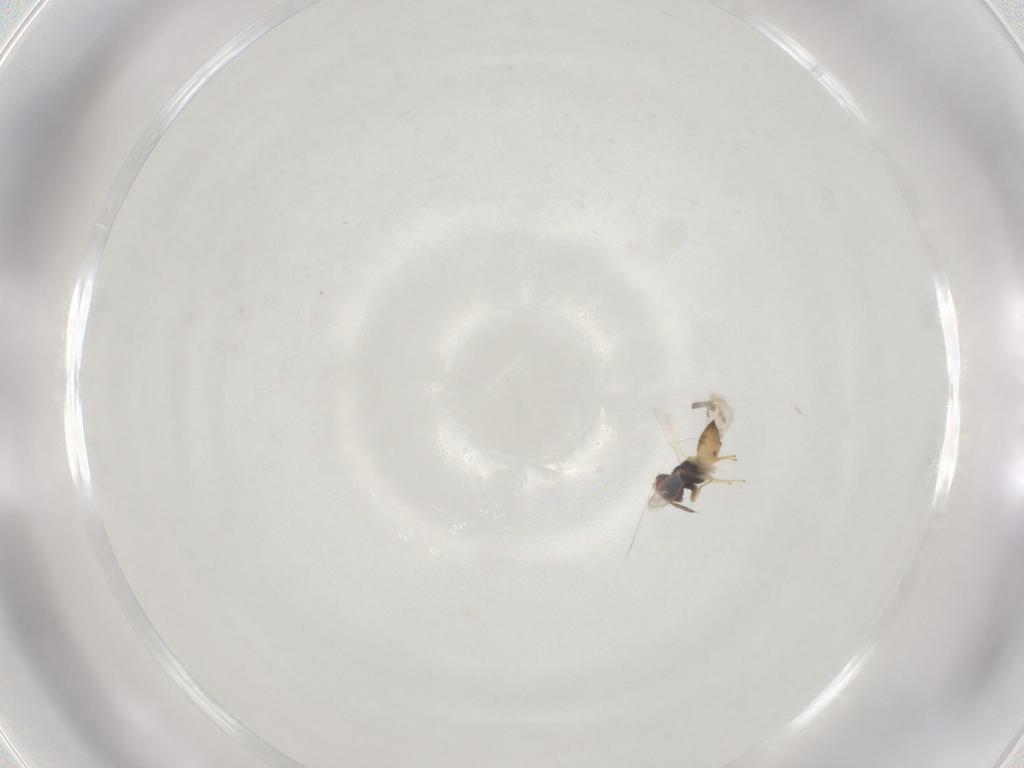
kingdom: Animalia
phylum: Arthropoda
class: Insecta
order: Hymenoptera
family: Eulophidae
